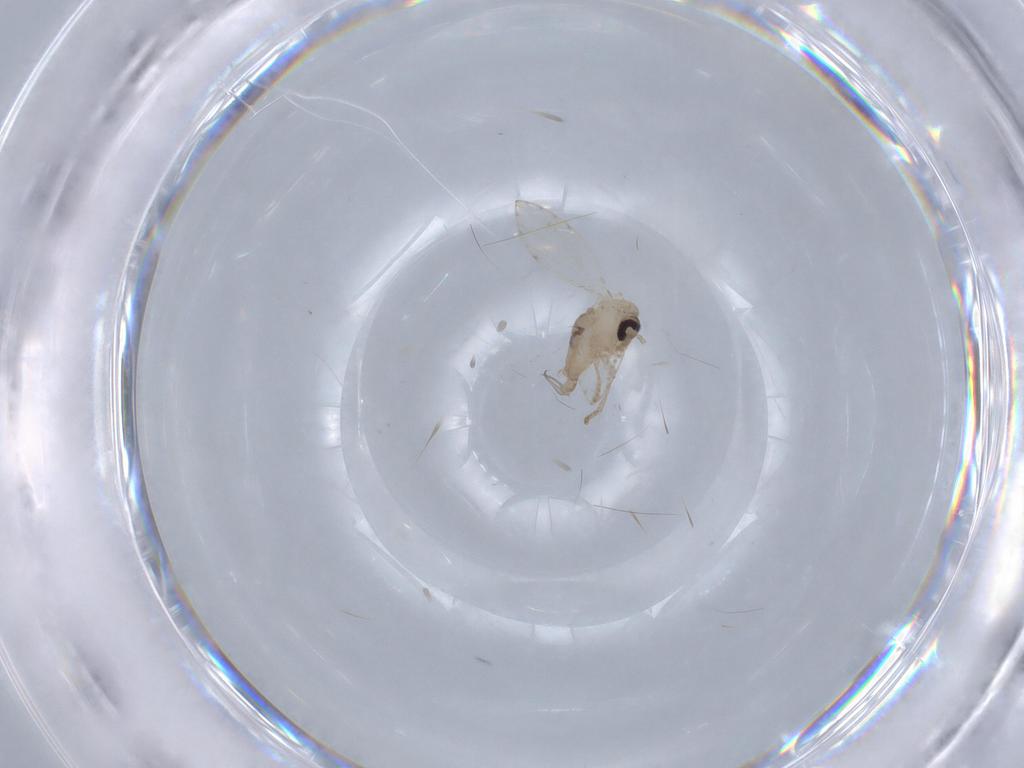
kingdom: Animalia
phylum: Arthropoda
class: Insecta
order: Diptera
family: Psychodidae
